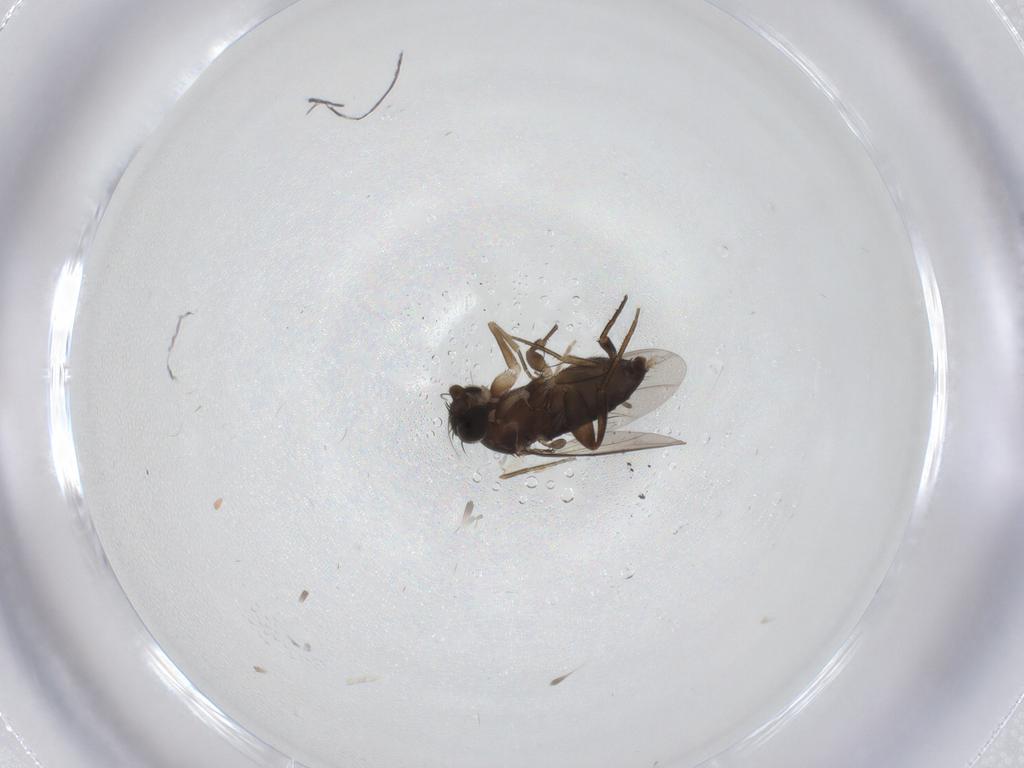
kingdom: Animalia
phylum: Arthropoda
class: Insecta
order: Diptera
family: Phoridae
